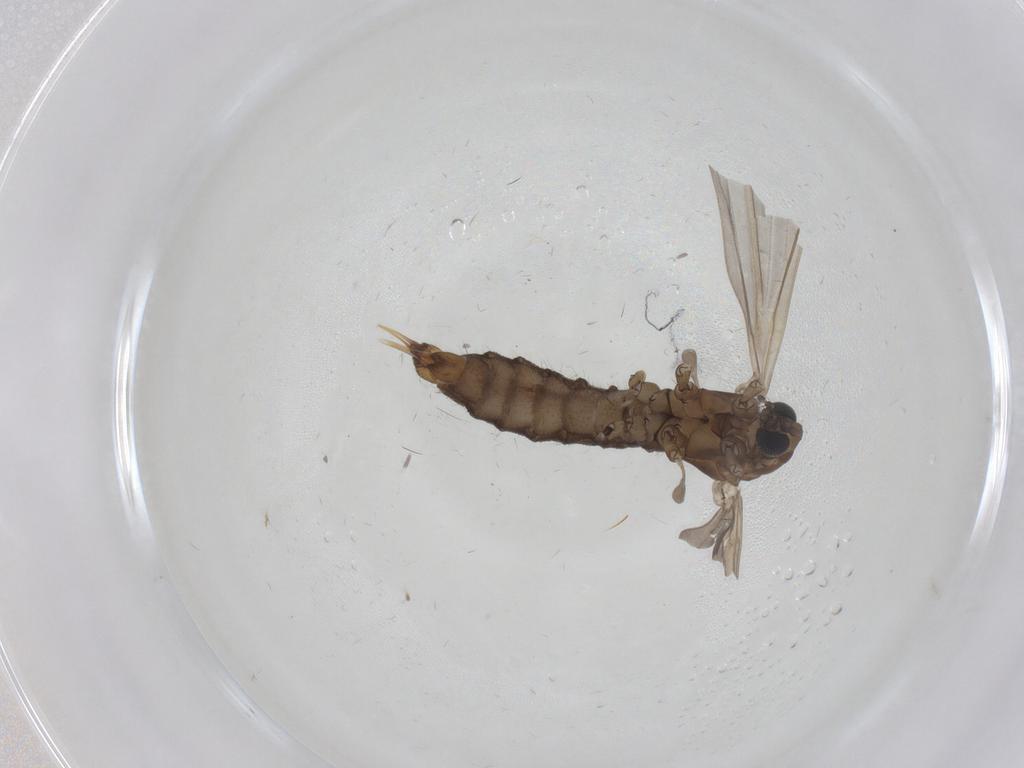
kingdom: Animalia
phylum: Arthropoda
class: Insecta
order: Diptera
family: Limoniidae
